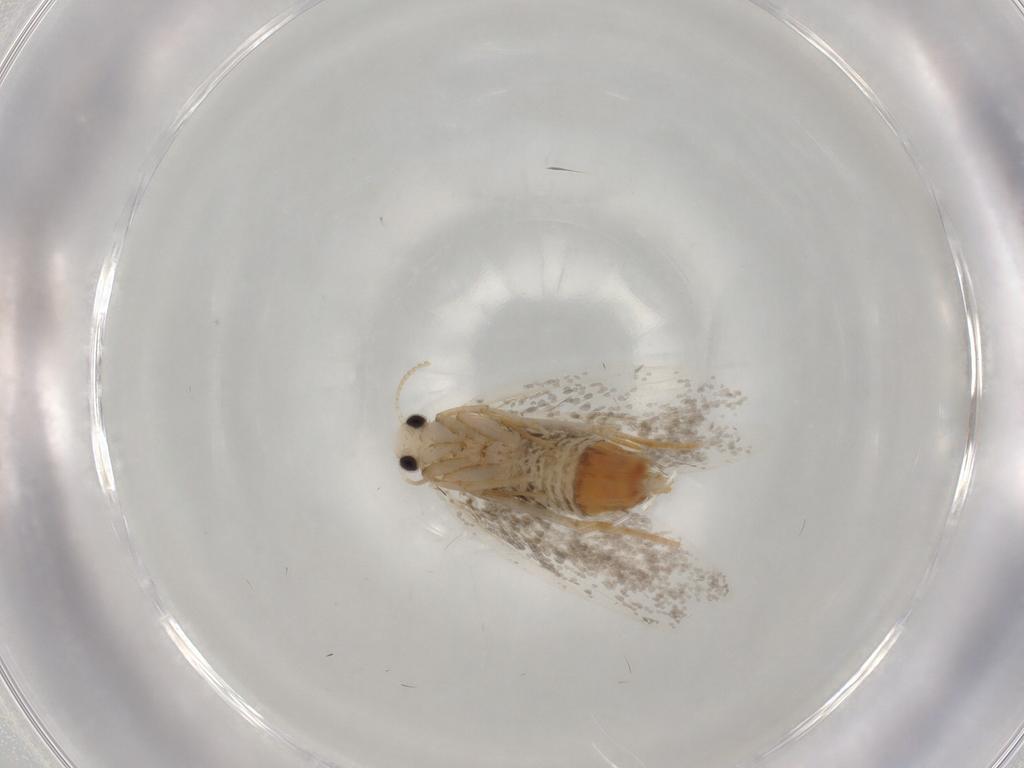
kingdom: Animalia
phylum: Arthropoda
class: Insecta
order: Lepidoptera
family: Psychidae
